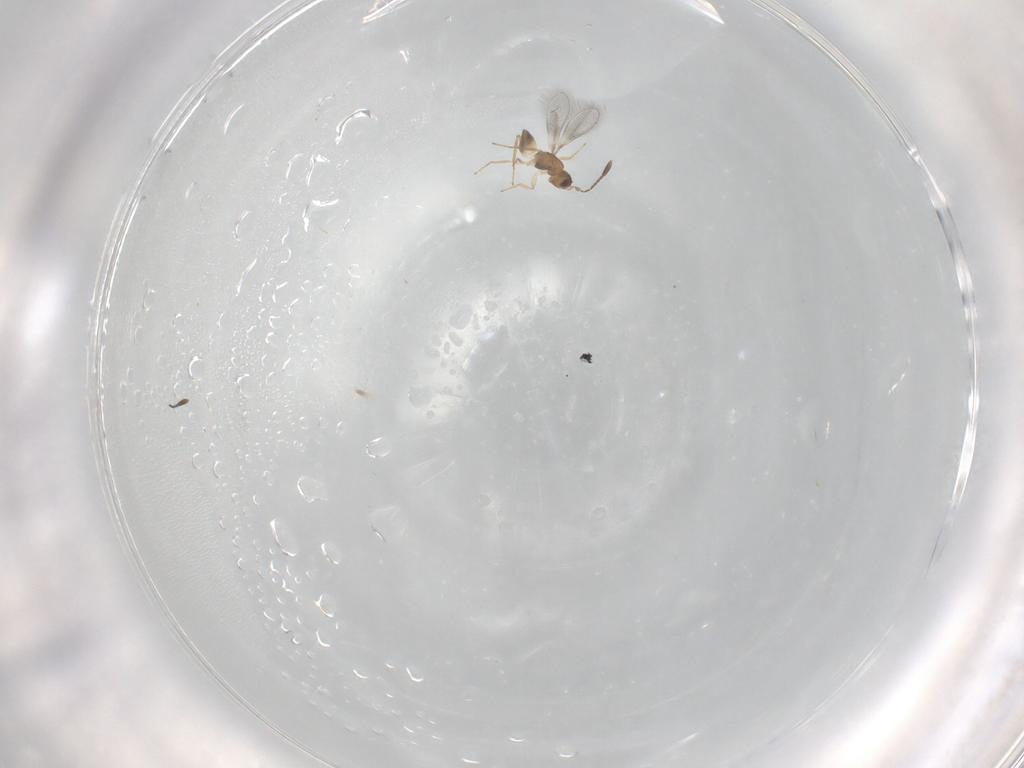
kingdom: Animalia
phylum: Arthropoda
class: Insecta
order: Hymenoptera
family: Mymaridae
